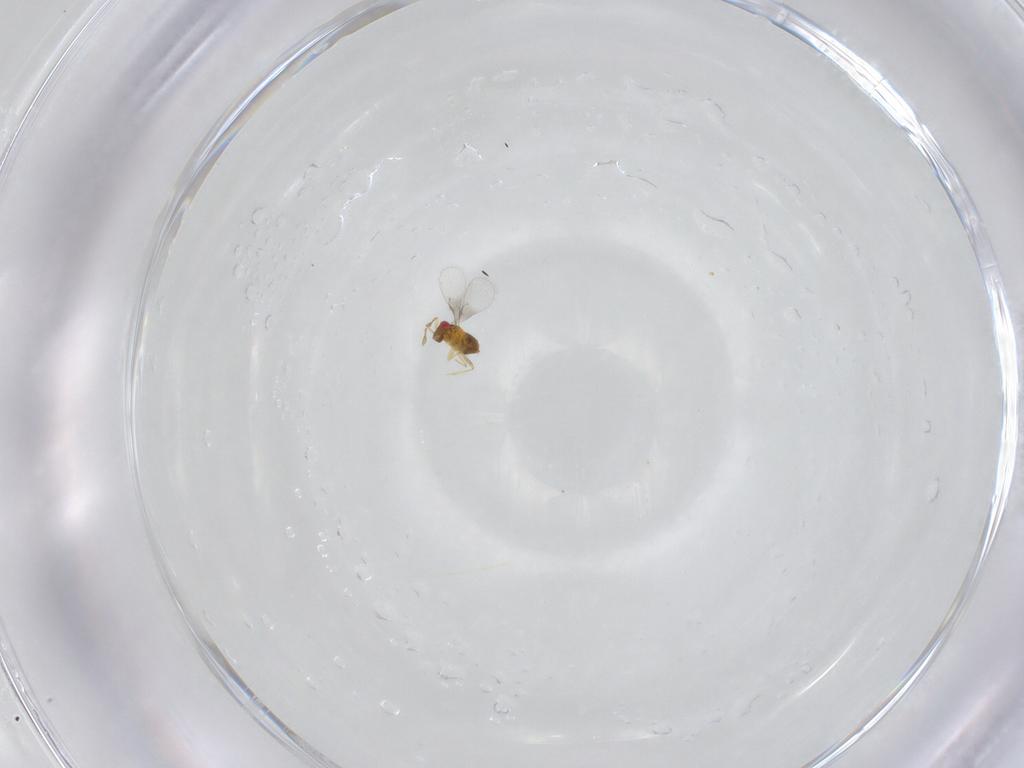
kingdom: Animalia
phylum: Arthropoda
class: Insecta
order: Hymenoptera
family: Trichogrammatidae
